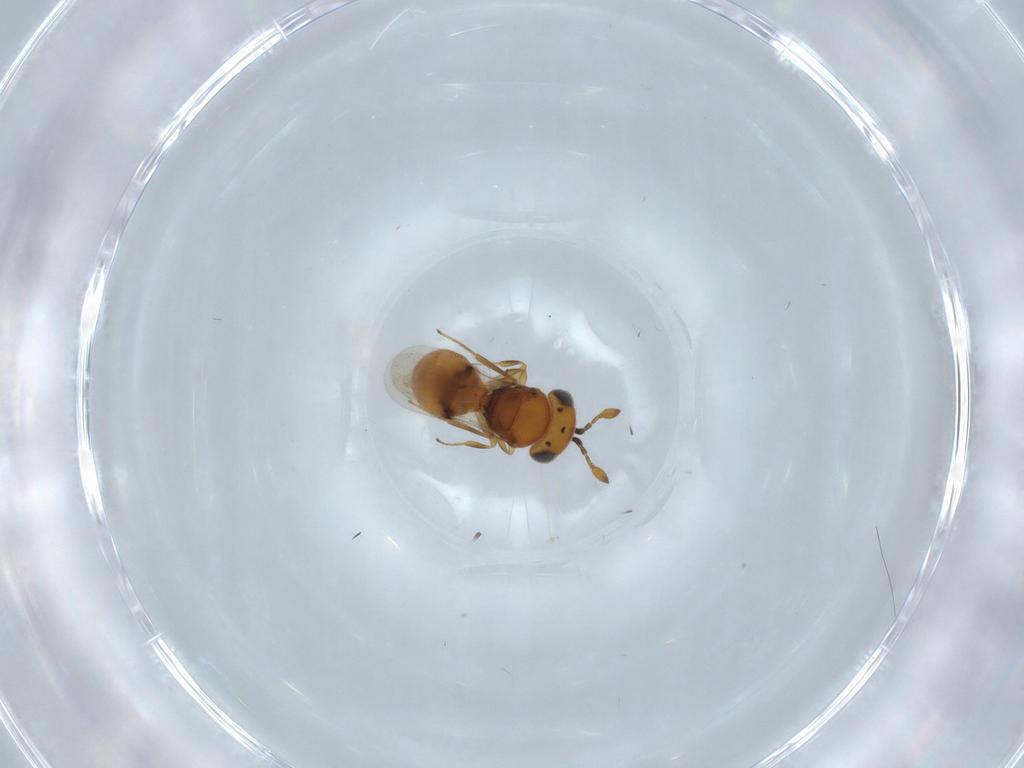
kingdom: Animalia
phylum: Arthropoda
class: Insecta
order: Hymenoptera
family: Scelionidae
